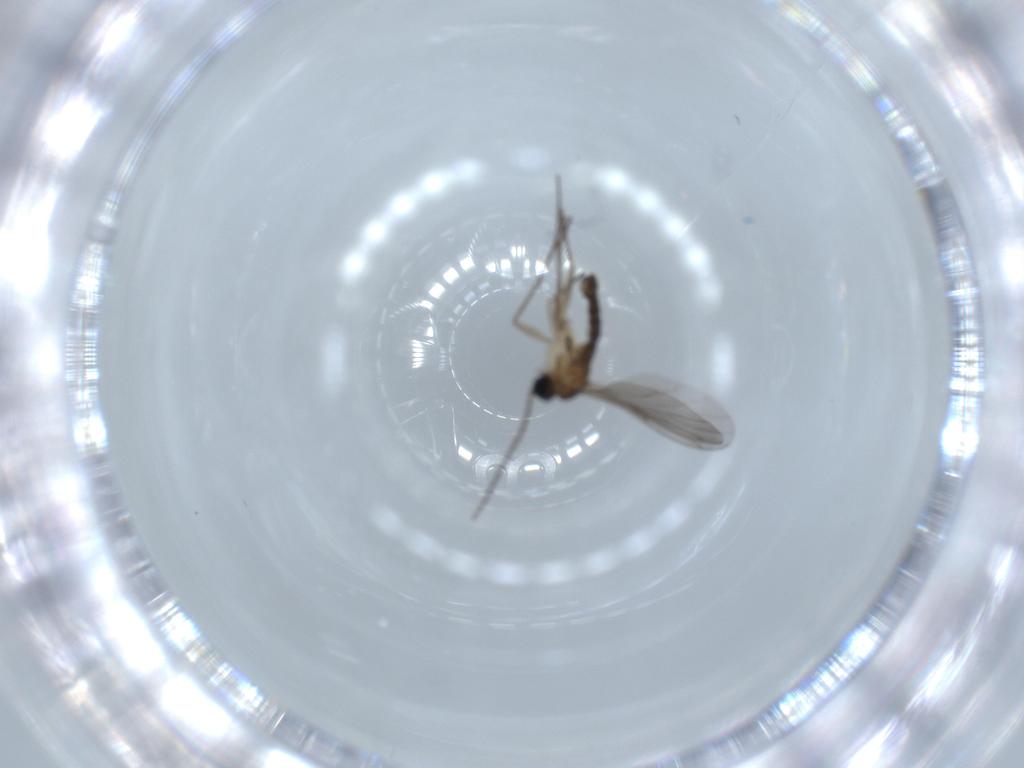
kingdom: Animalia
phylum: Arthropoda
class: Insecta
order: Diptera
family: Sciaridae
